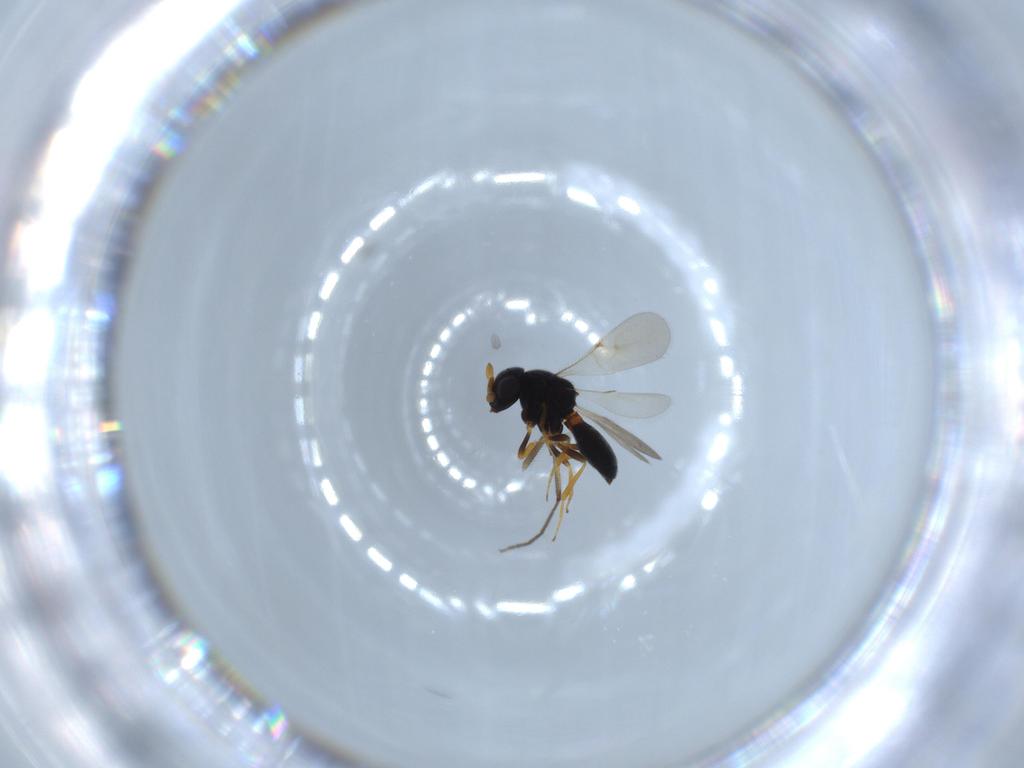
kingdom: Animalia
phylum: Arthropoda
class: Insecta
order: Hymenoptera
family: Scelionidae
